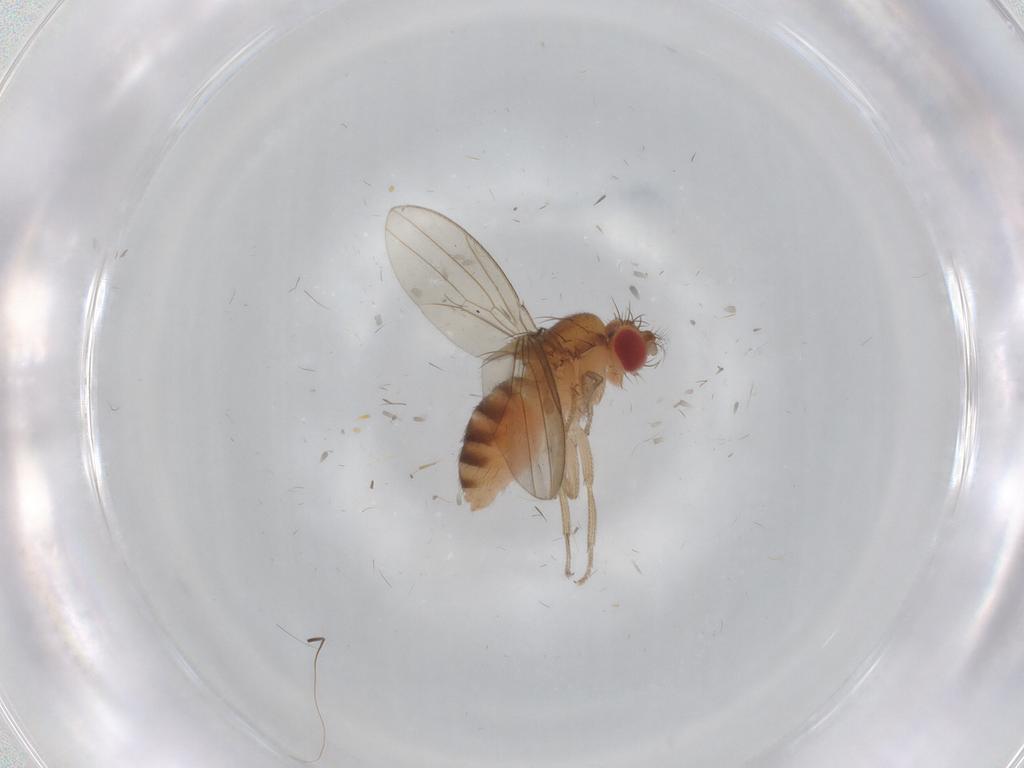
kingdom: Animalia
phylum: Arthropoda
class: Insecta
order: Diptera
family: Drosophilidae
